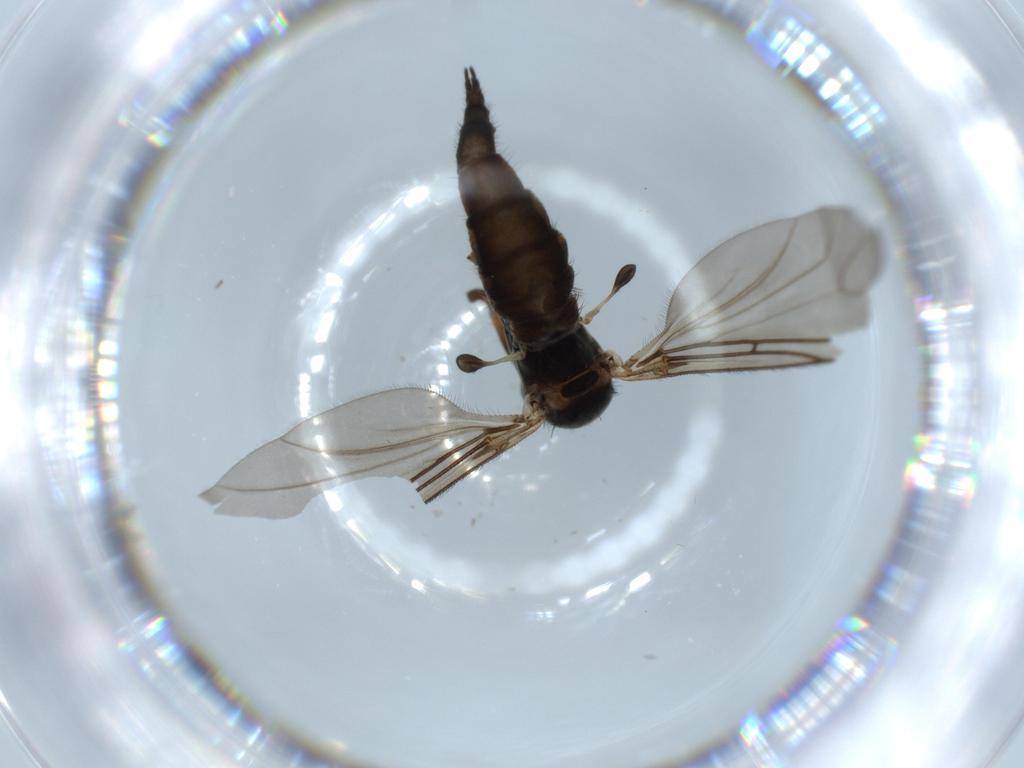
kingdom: Animalia
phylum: Arthropoda
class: Insecta
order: Diptera
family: Sciaridae
